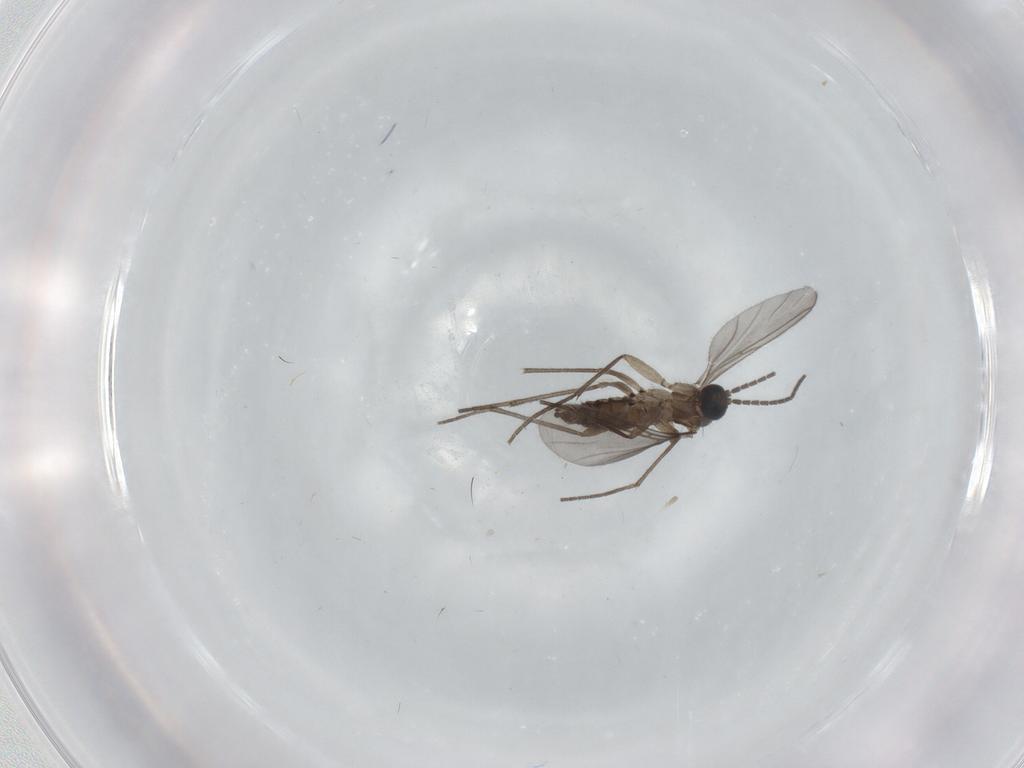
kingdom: Animalia
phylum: Arthropoda
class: Insecta
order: Diptera
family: Sciaridae
